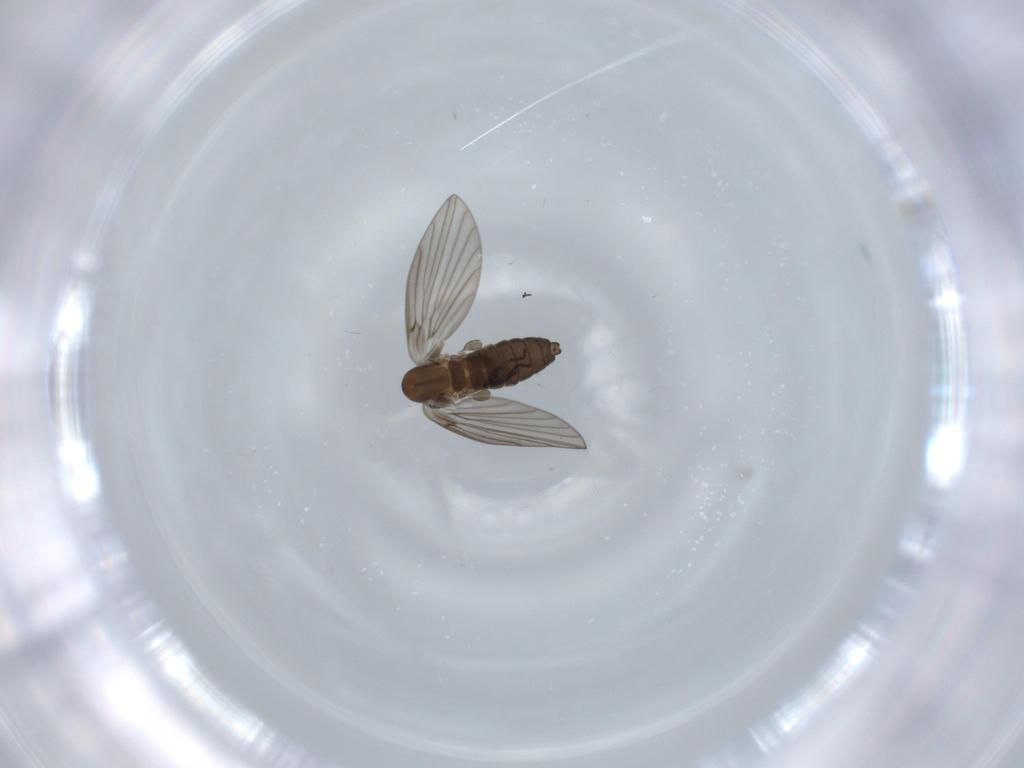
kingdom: Animalia
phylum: Arthropoda
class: Insecta
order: Diptera
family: Psychodidae
